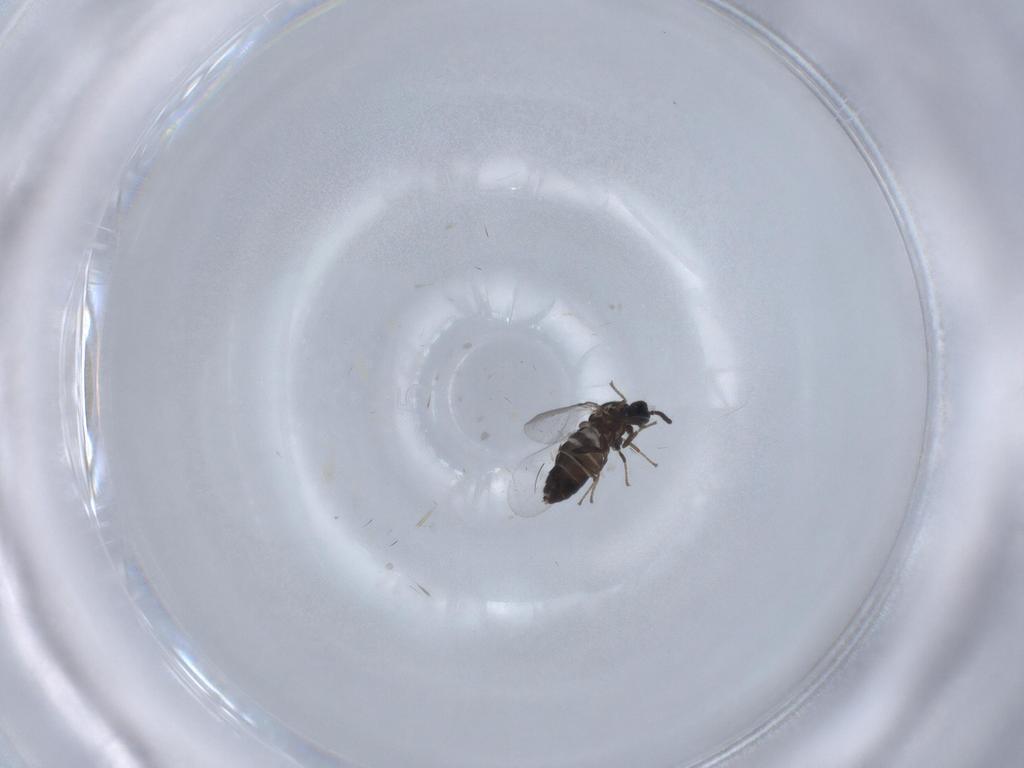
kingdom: Animalia
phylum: Arthropoda
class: Insecta
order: Diptera
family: Scatopsidae
